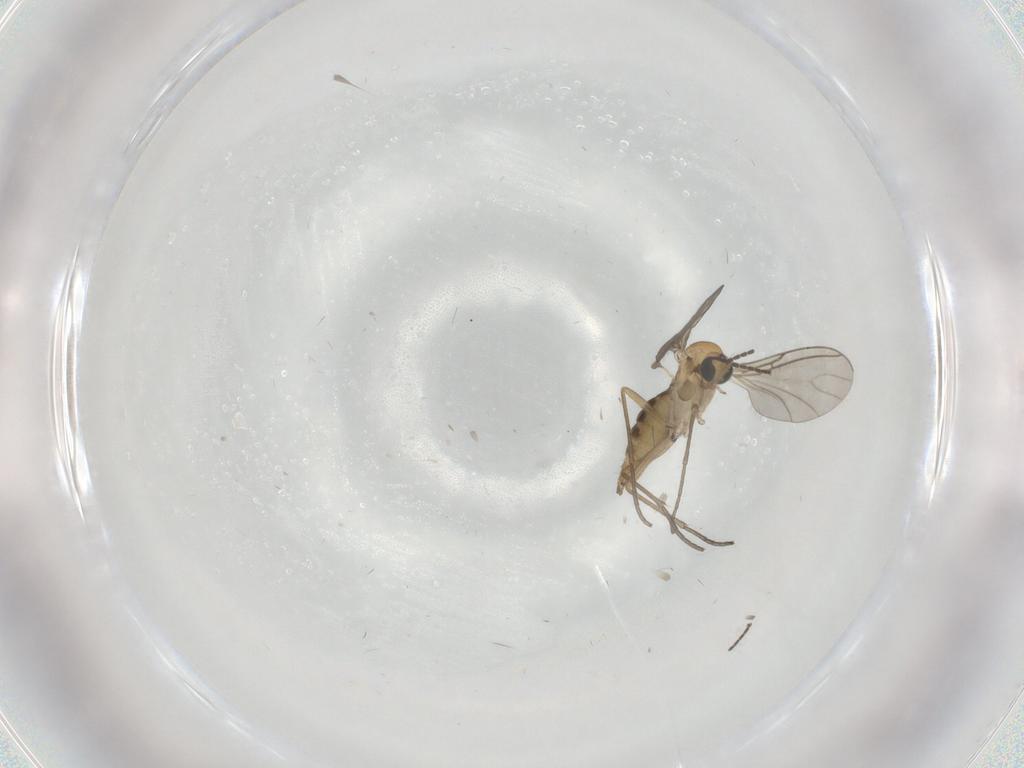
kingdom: Animalia
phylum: Arthropoda
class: Insecta
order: Diptera
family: Sciaridae
